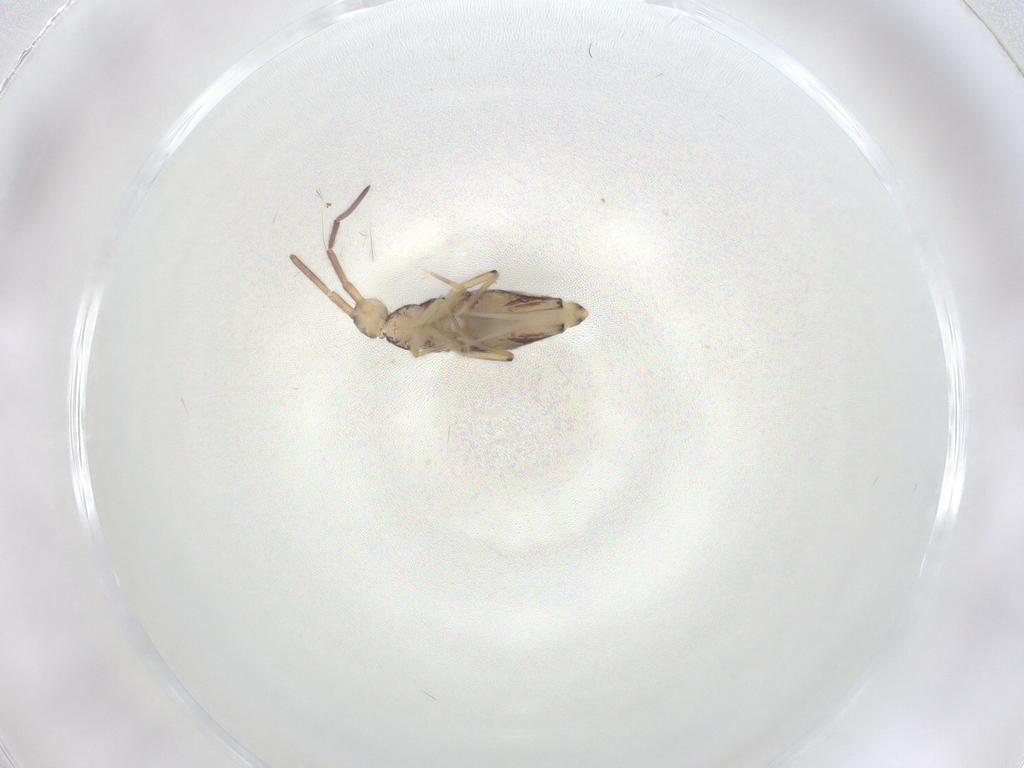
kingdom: Animalia
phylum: Arthropoda
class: Collembola
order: Entomobryomorpha
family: Entomobryidae
